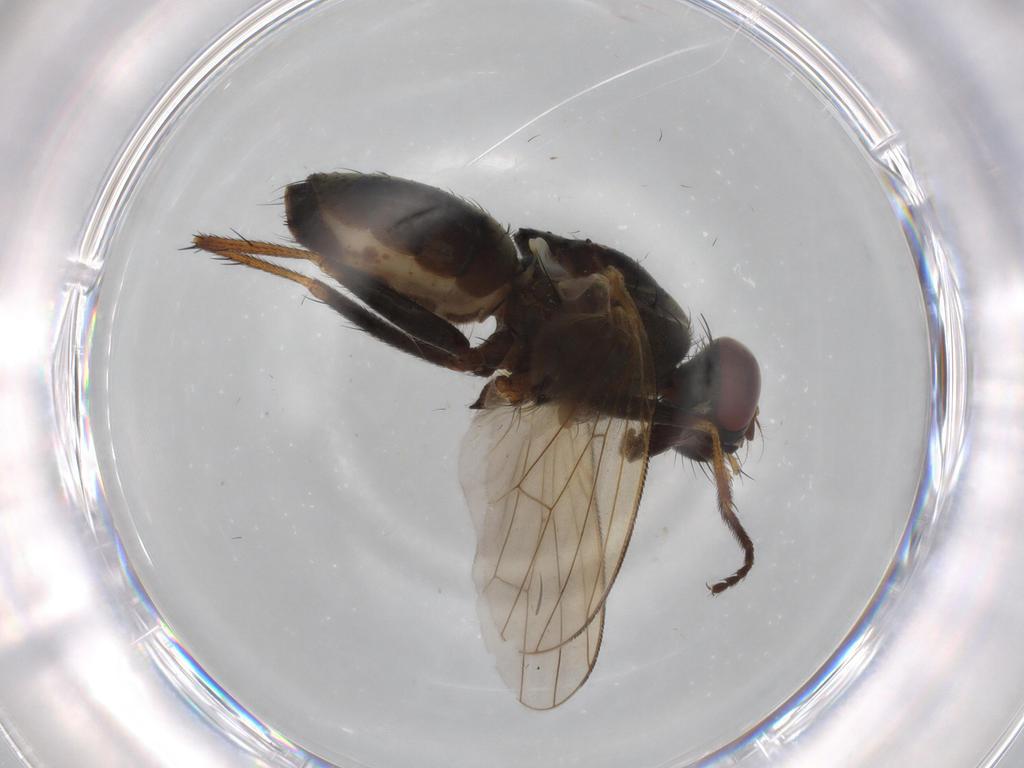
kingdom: Animalia
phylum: Arthropoda
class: Insecta
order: Diptera
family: Muscidae
